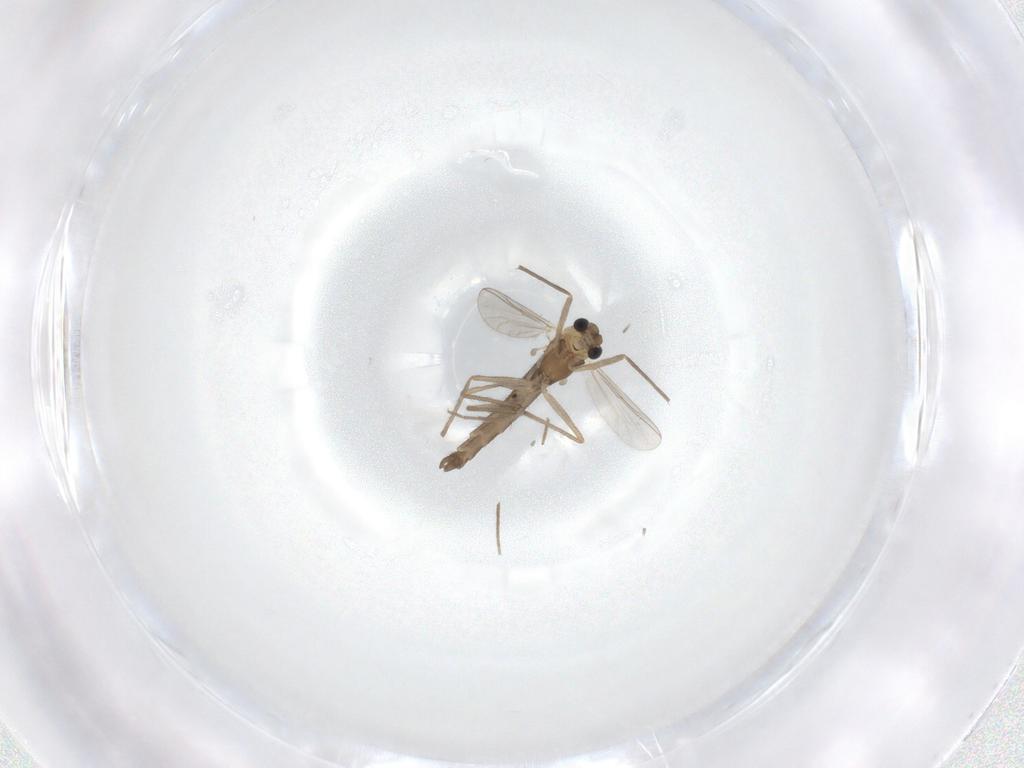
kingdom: Animalia
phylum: Arthropoda
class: Insecta
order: Diptera
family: Chironomidae
